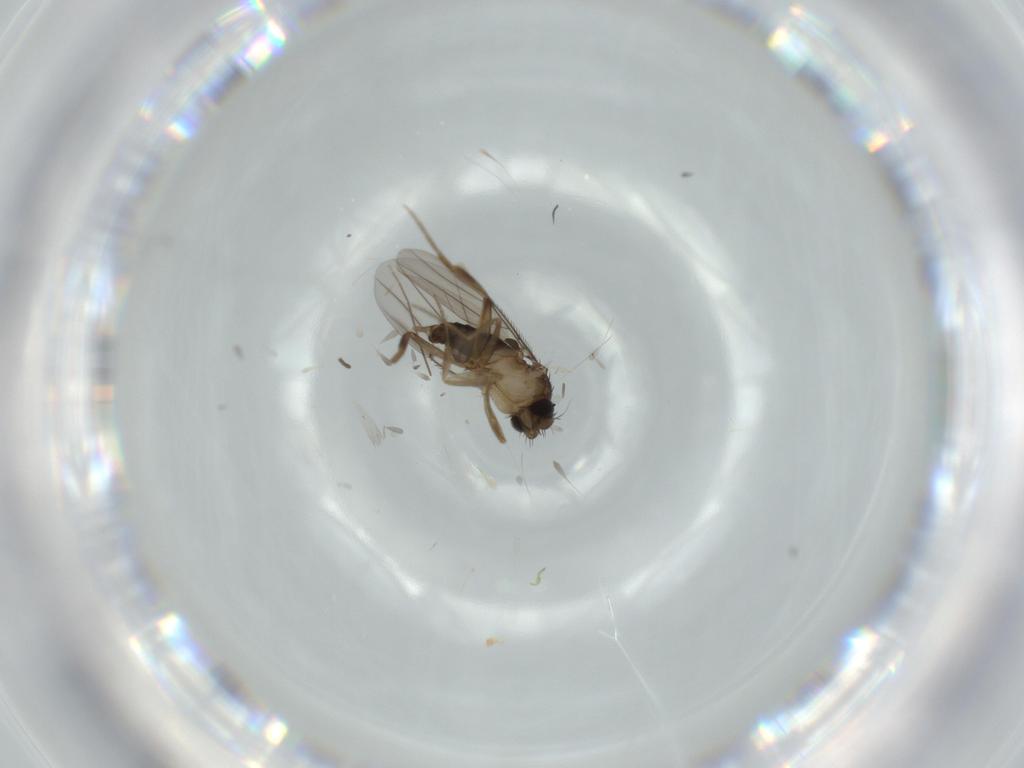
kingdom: Animalia
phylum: Arthropoda
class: Insecta
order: Diptera
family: Sciaridae
